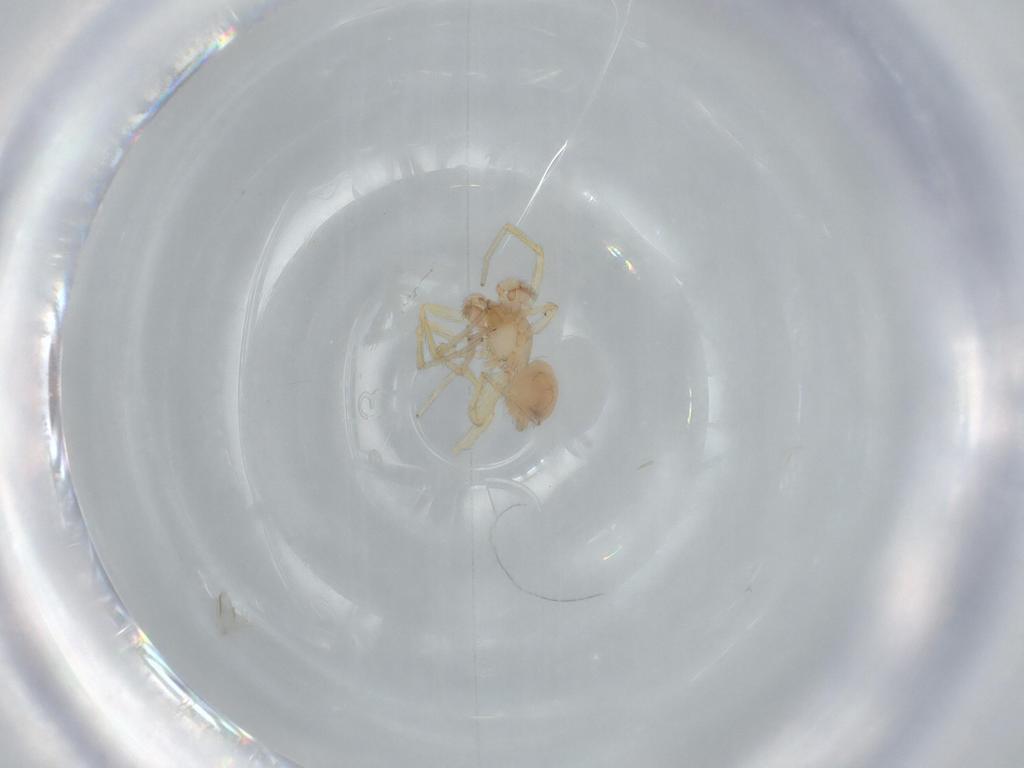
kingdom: Animalia
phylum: Arthropoda
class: Arachnida
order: Araneae
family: Oonopidae
